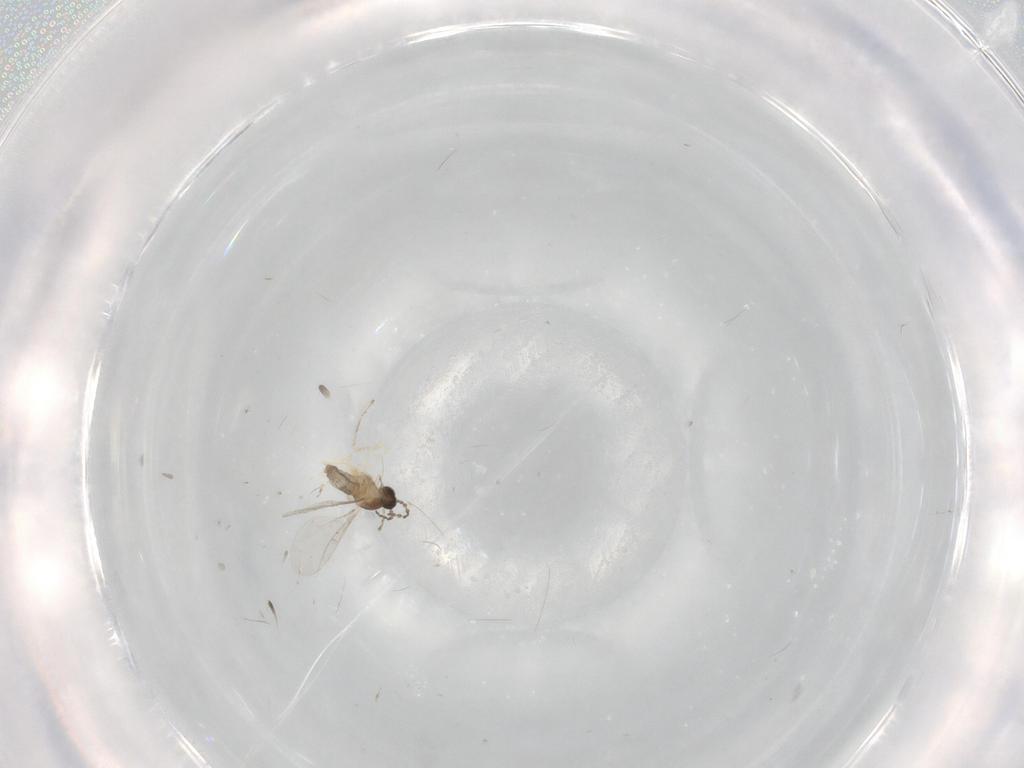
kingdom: Animalia
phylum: Arthropoda
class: Insecta
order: Diptera
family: Cecidomyiidae
